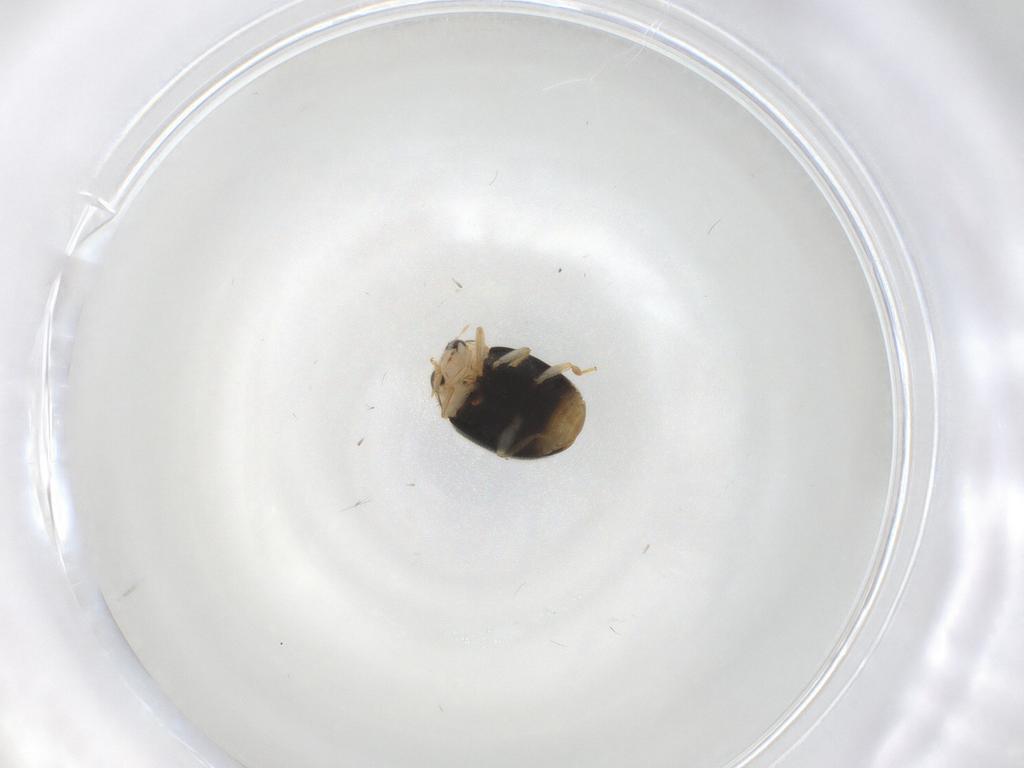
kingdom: Animalia
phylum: Arthropoda
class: Insecta
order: Coleoptera
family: Coccinellidae
